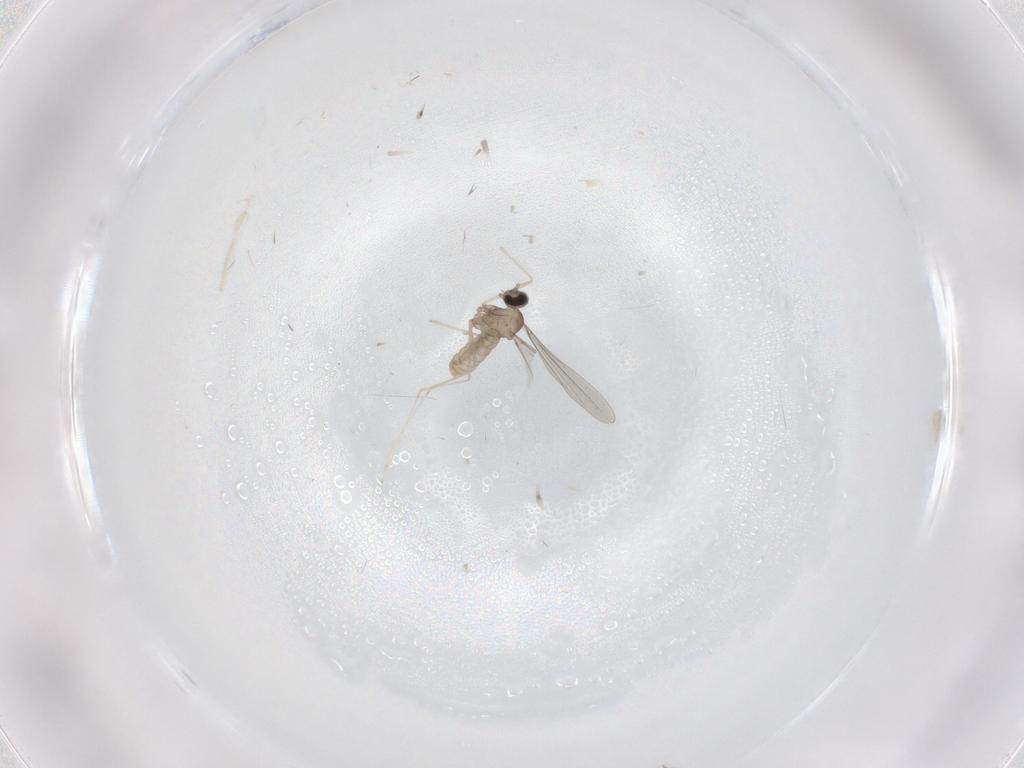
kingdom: Animalia
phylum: Arthropoda
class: Insecta
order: Diptera
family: Cecidomyiidae
